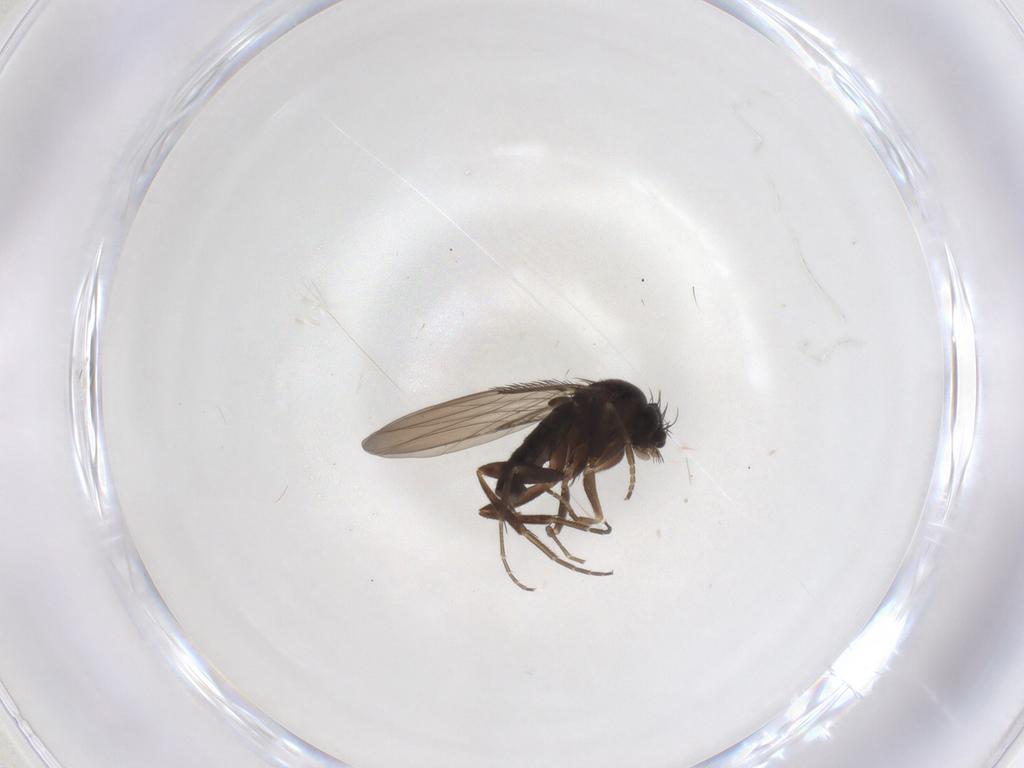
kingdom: Animalia
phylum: Arthropoda
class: Insecta
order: Diptera
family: Phoridae
